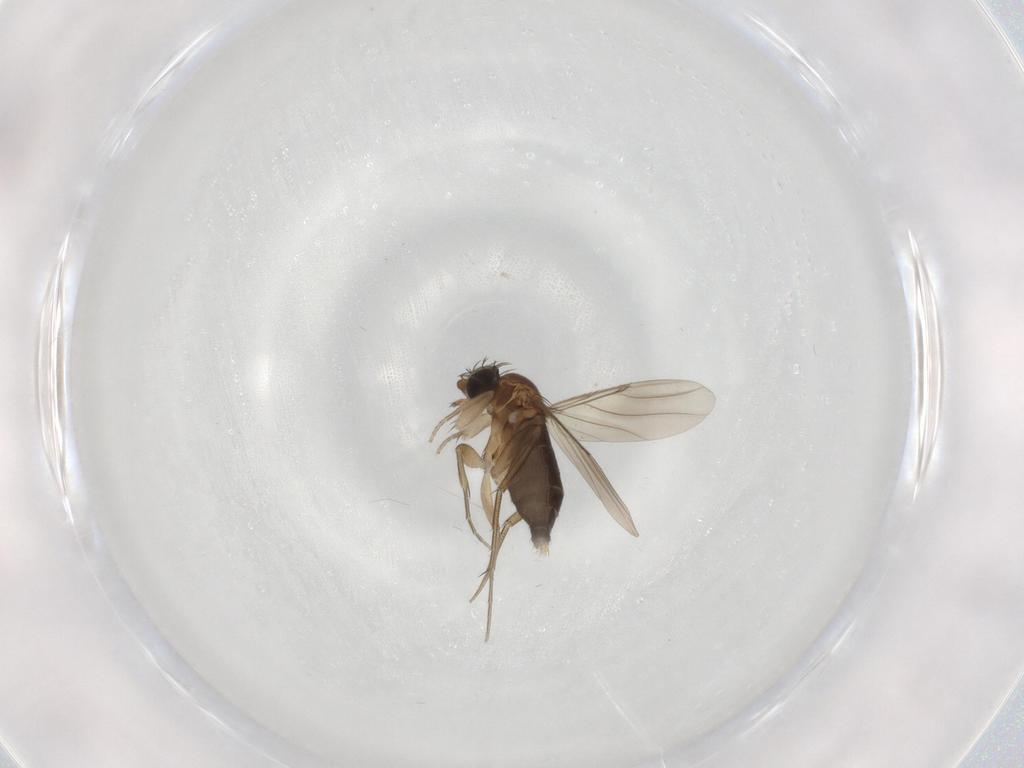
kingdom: Animalia
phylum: Arthropoda
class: Insecta
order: Diptera
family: Phoridae
